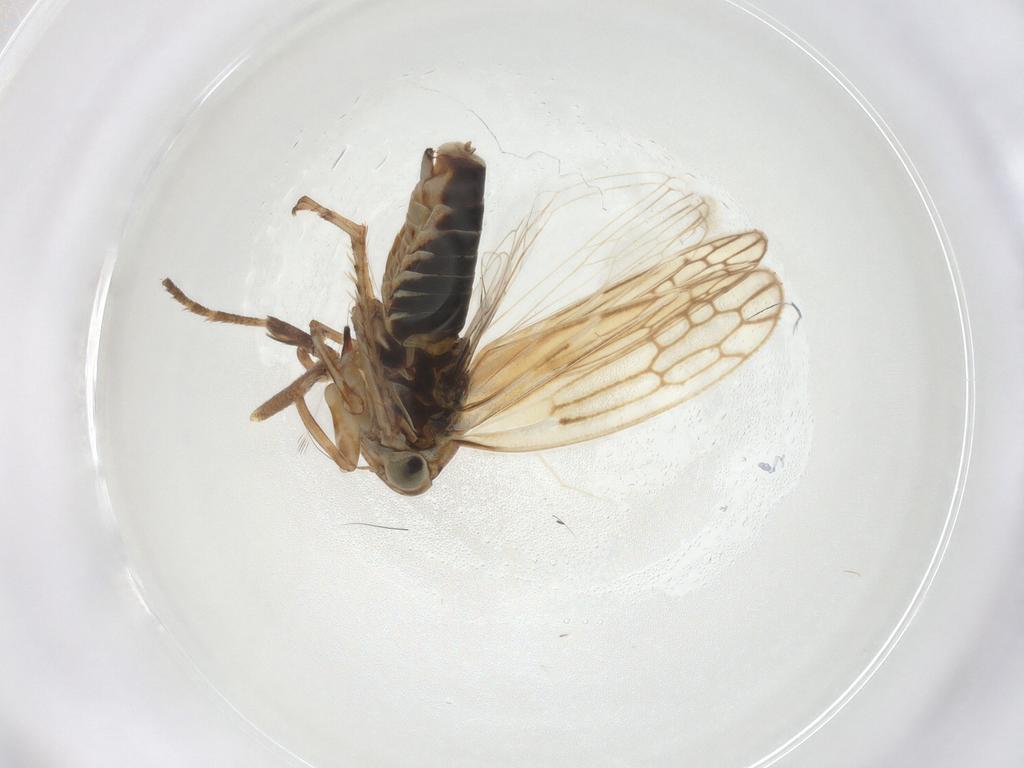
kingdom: Animalia
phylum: Arthropoda
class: Insecta
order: Hemiptera
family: Cicadellidae
